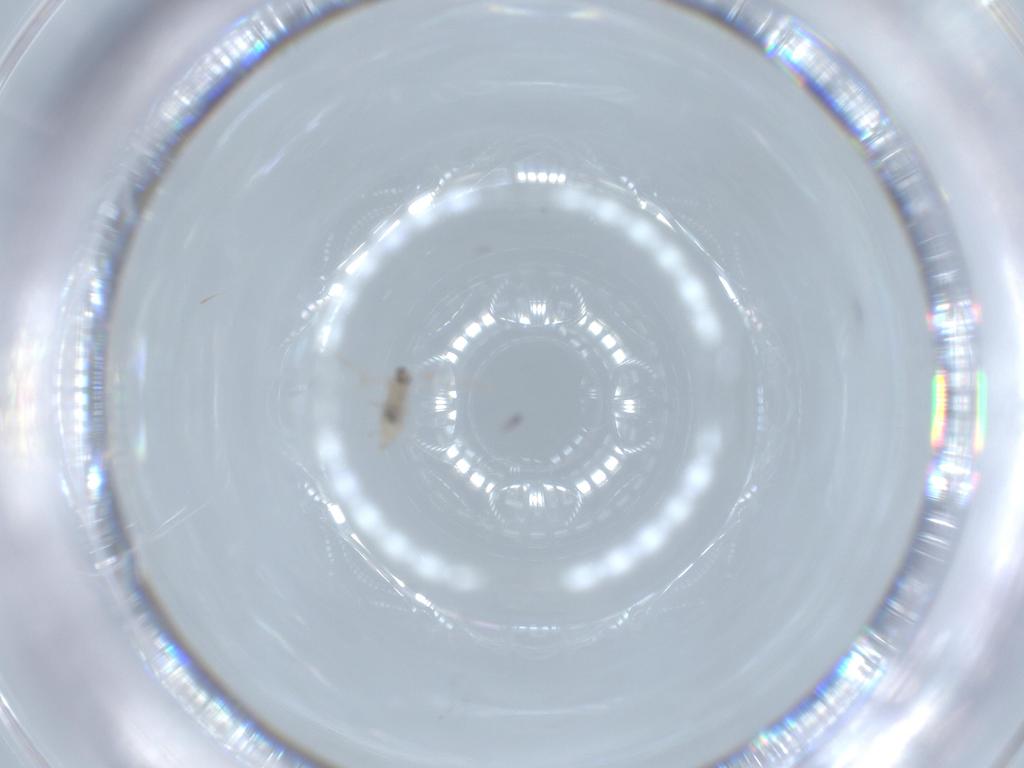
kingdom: Animalia
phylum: Arthropoda
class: Insecta
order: Diptera
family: Cecidomyiidae
